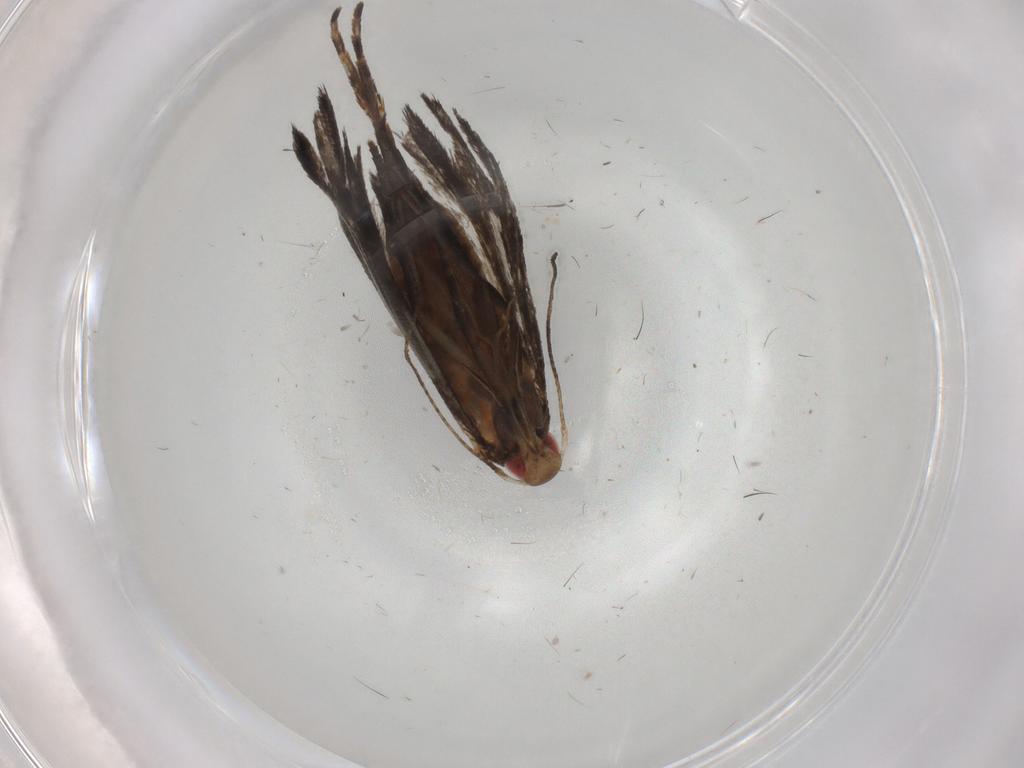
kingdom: Animalia
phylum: Arthropoda
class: Insecta
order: Lepidoptera
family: Gelechiidae
